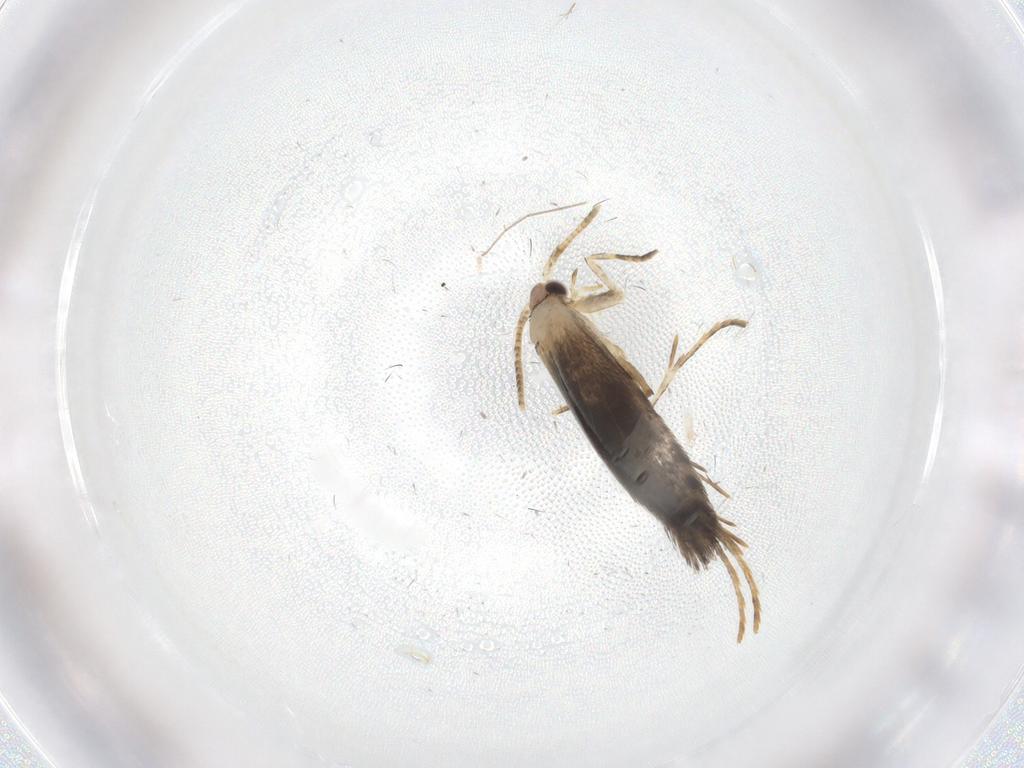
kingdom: Animalia
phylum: Arthropoda
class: Insecta
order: Lepidoptera
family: Tineidae
